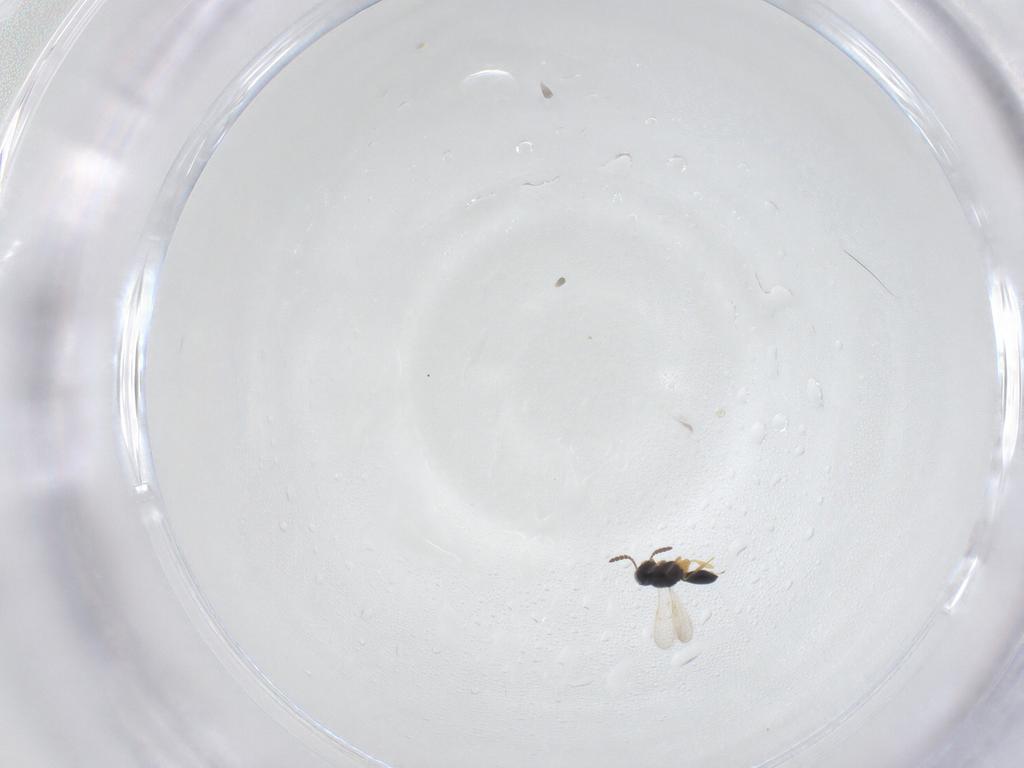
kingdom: Animalia
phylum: Arthropoda
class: Insecta
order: Hymenoptera
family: Scelionidae
